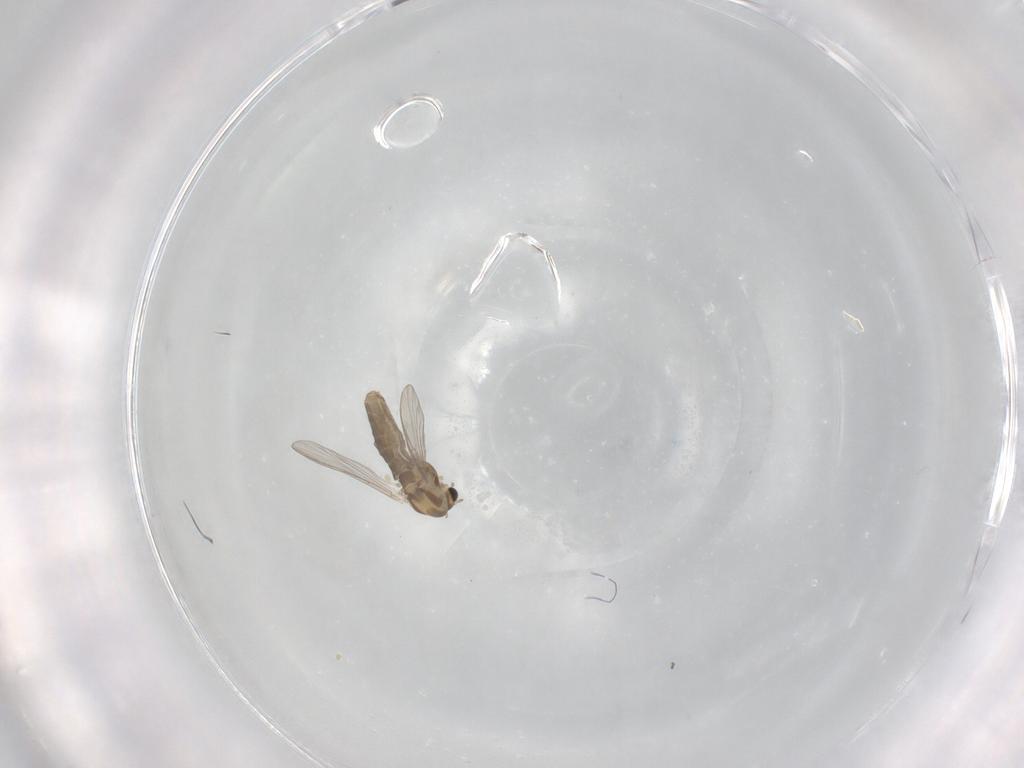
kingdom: Animalia
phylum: Arthropoda
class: Insecta
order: Diptera
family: Chironomidae
